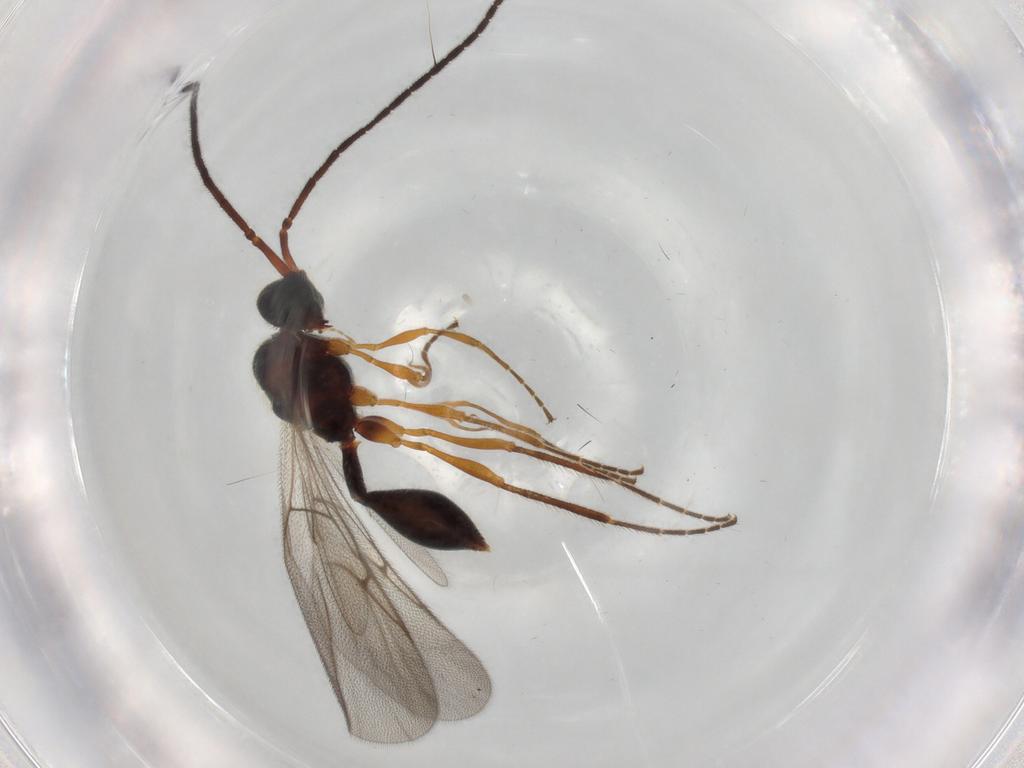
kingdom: Animalia
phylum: Arthropoda
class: Insecta
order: Hymenoptera
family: Diapriidae
